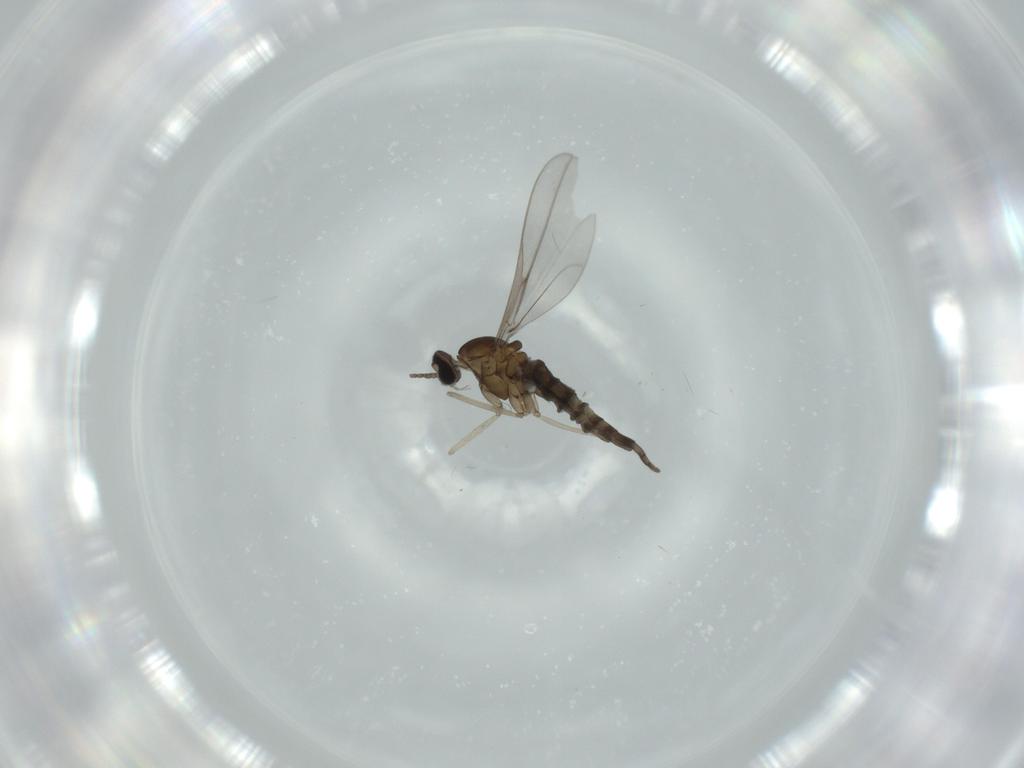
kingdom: Animalia
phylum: Arthropoda
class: Insecta
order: Diptera
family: Cecidomyiidae
